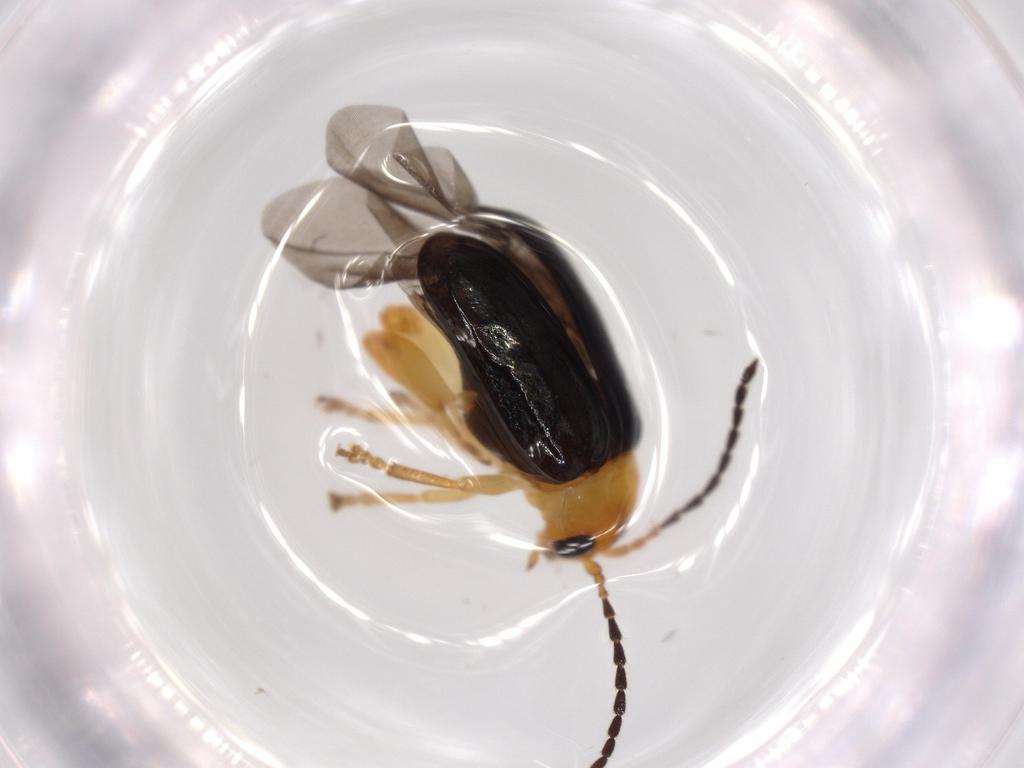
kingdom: Animalia
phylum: Arthropoda
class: Insecta
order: Coleoptera
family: Chrysomelidae
